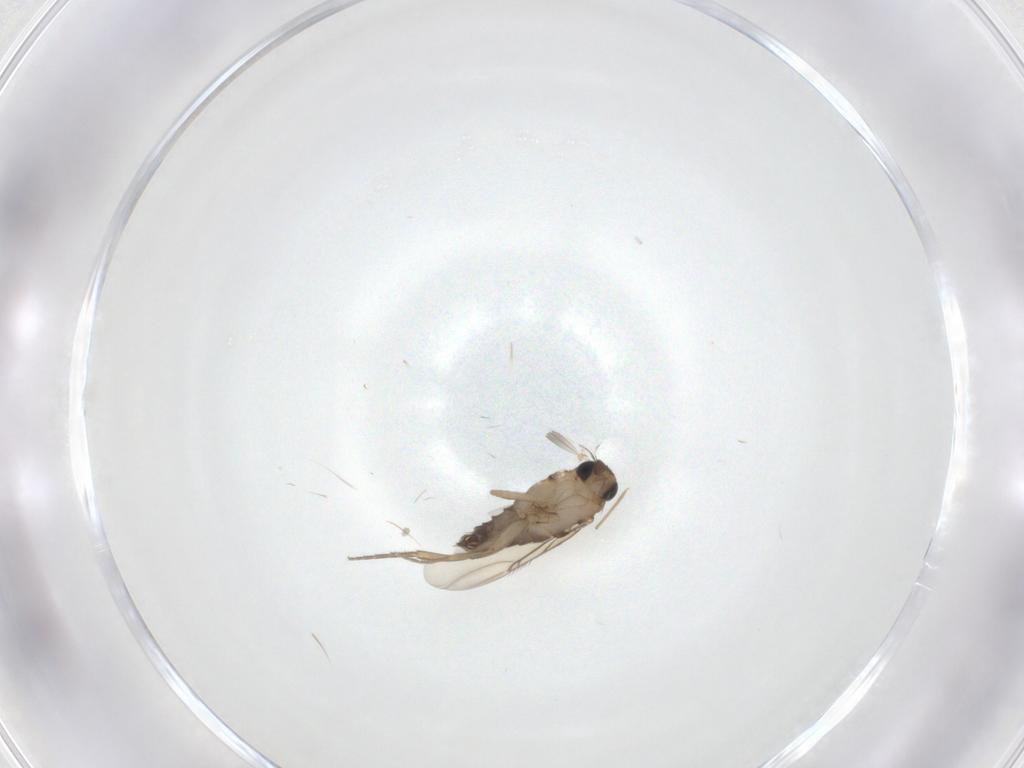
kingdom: Animalia
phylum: Arthropoda
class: Insecta
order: Diptera
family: Phoridae
